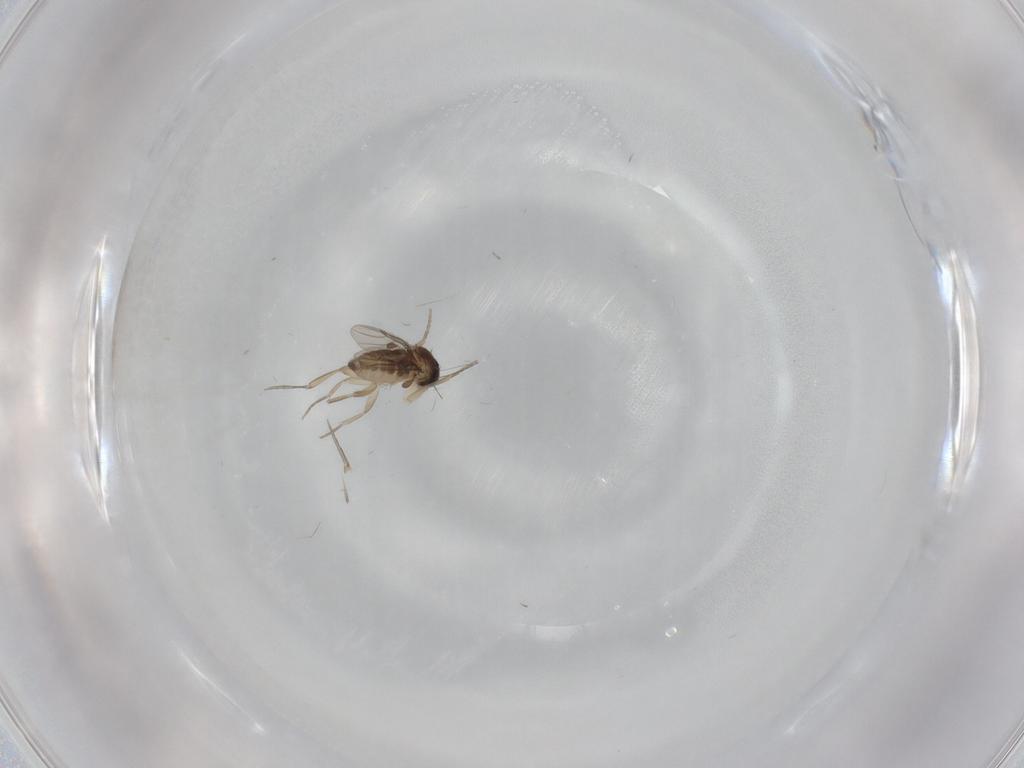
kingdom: Animalia
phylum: Arthropoda
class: Insecta
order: Diptera
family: Phoridae
